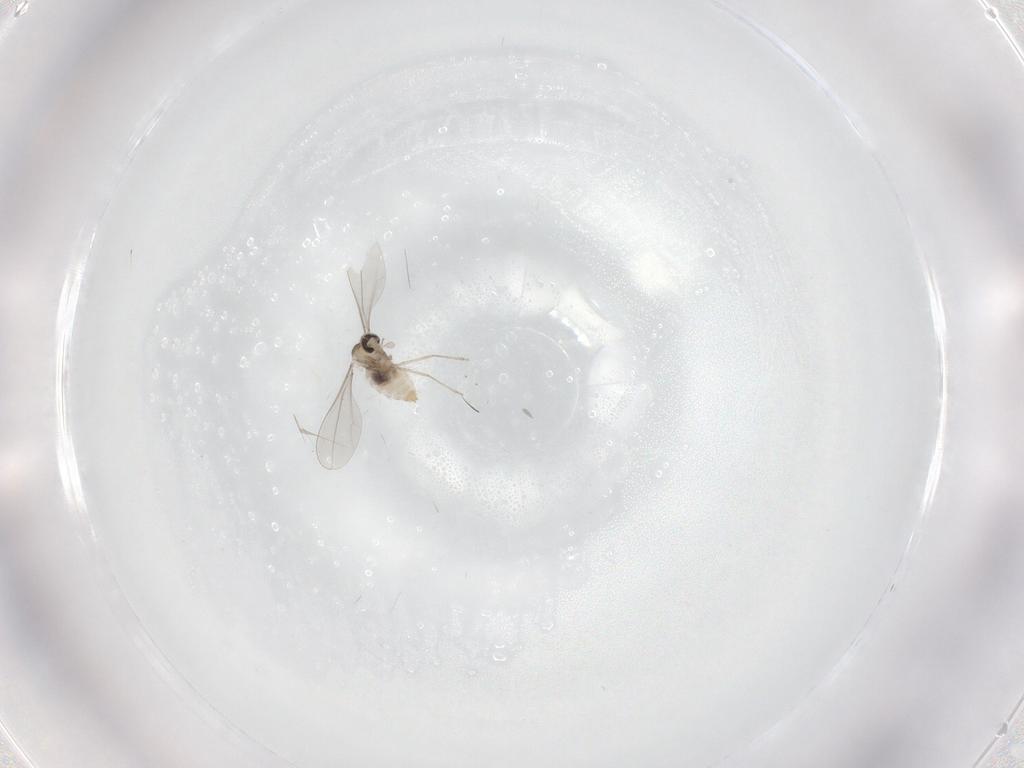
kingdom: Animalia
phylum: Arthropoda
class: Insecta
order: Diptera
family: Cecidomyiidae
